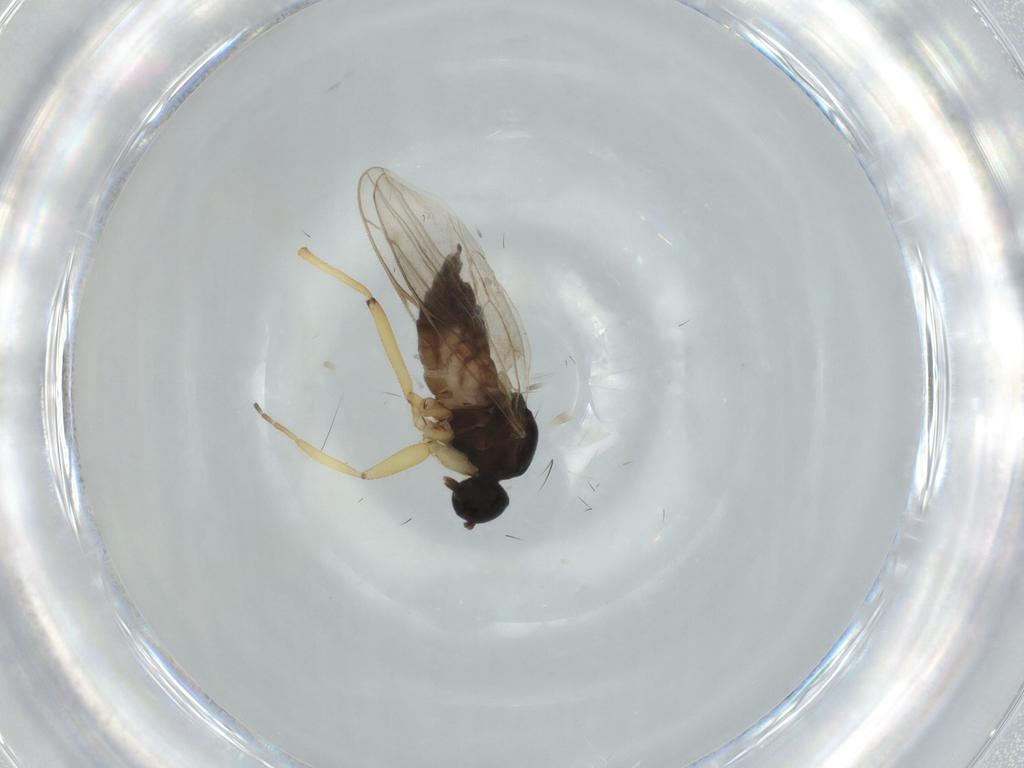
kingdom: Animalia
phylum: Arthropoda
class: Insecta
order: Diptera
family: Hybotidae
